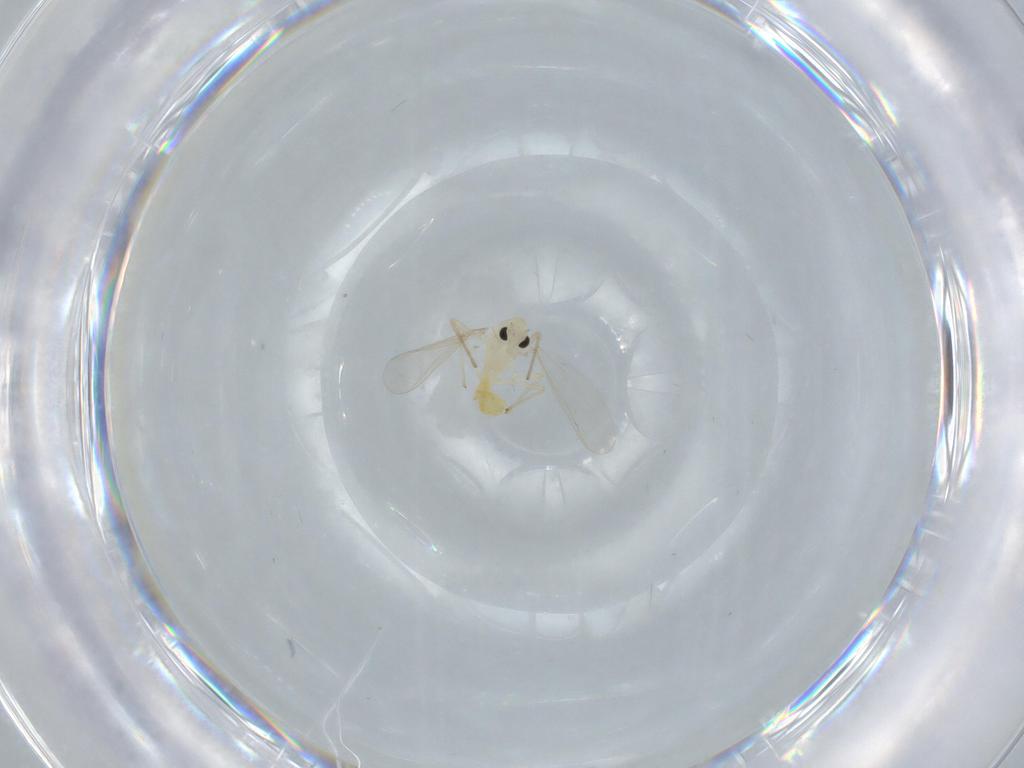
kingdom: Animalia
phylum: Arthropoda
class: Insecta
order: Diptera
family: Chironomidae
